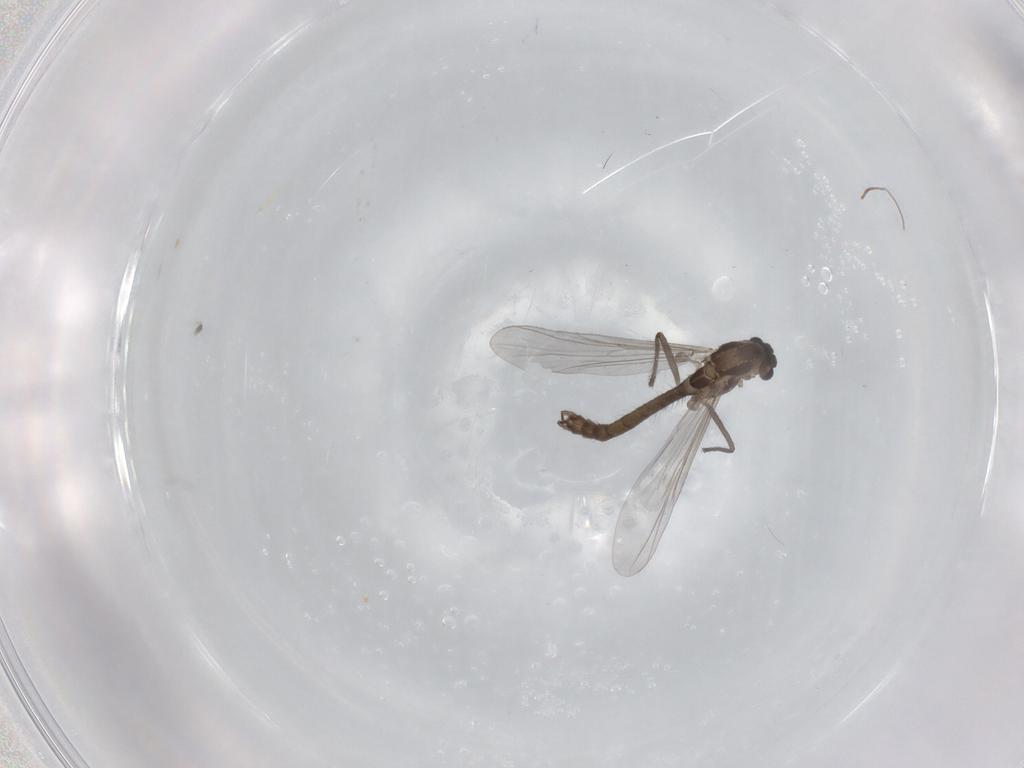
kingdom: Animalia
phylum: Arthropoda
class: Insecta
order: Diptera
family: Chironomidae
